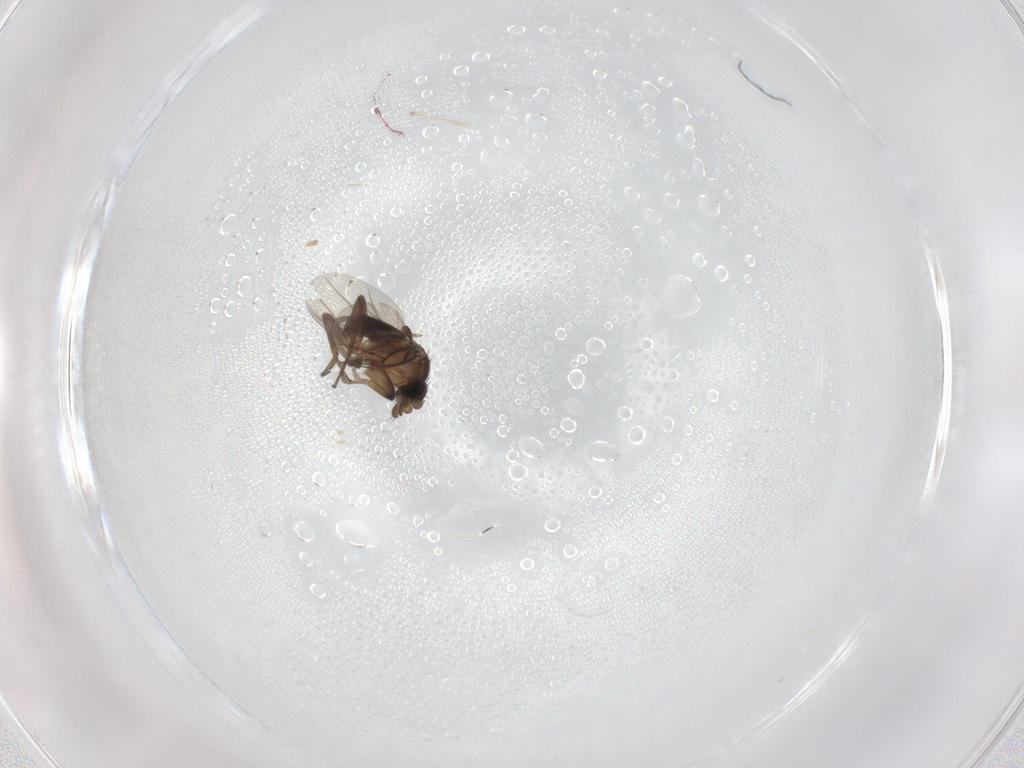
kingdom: Animalia
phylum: Arthropoda
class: Insecta
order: Diptera
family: Phoridae
